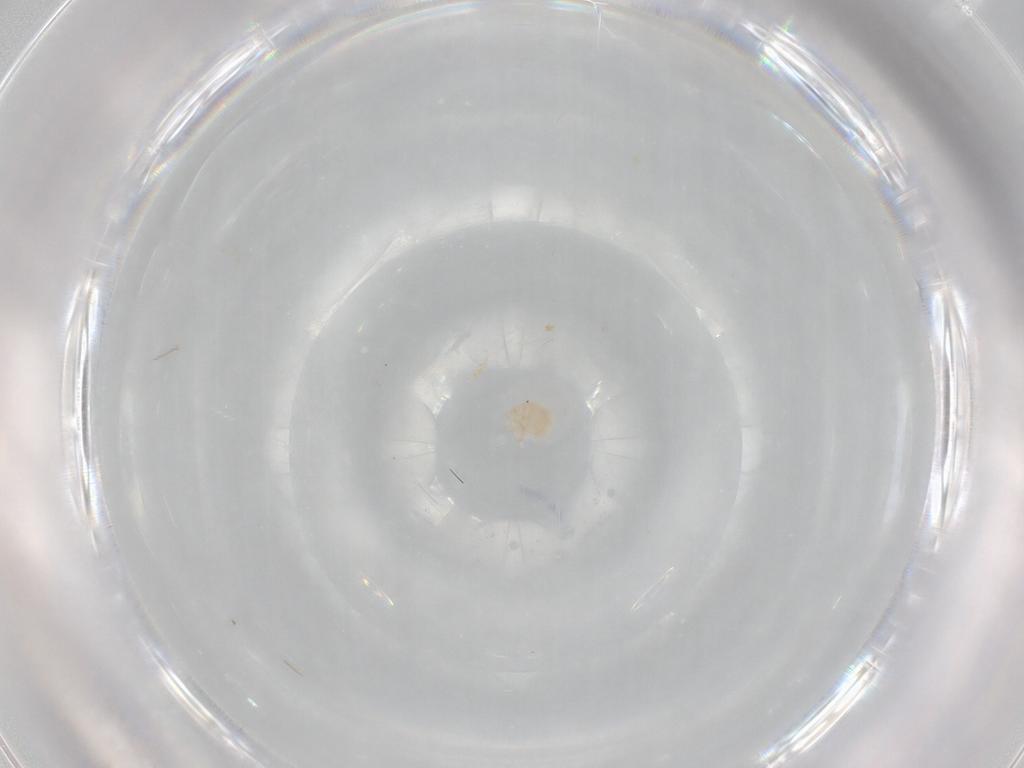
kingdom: Animalia
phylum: Arthropoda
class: Arachnida
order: Trombidiformes
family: Sperchontidae
